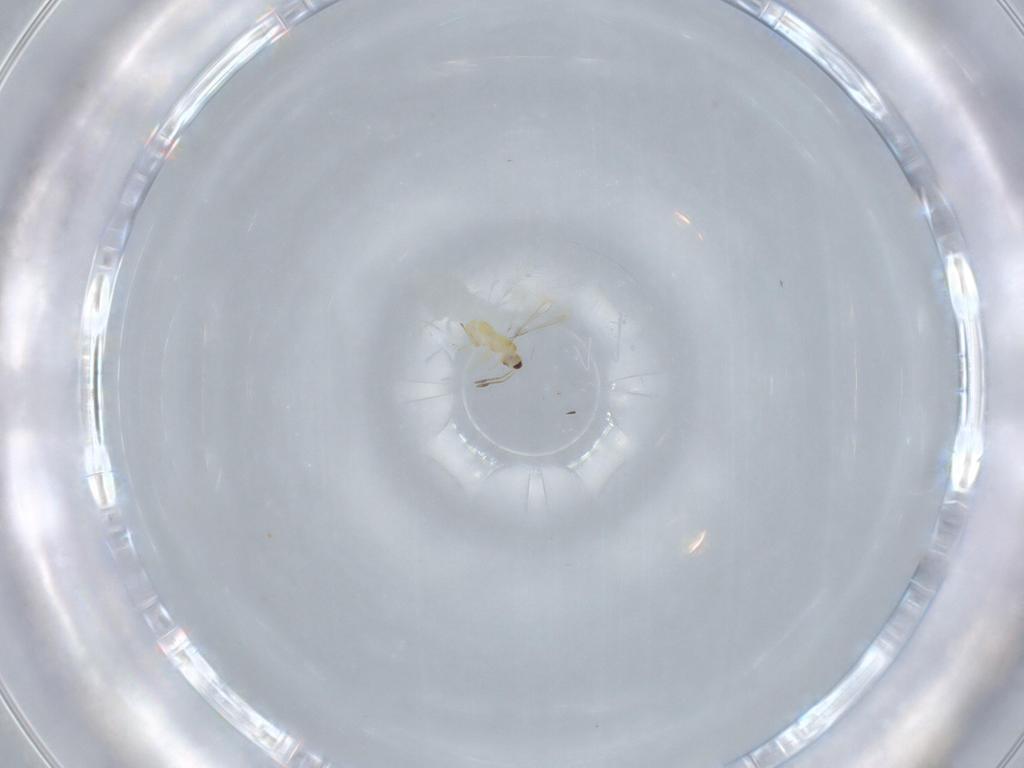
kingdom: Animalia
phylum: Arthropoda
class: Insecta
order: Hymenoptera
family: Mymaridae
